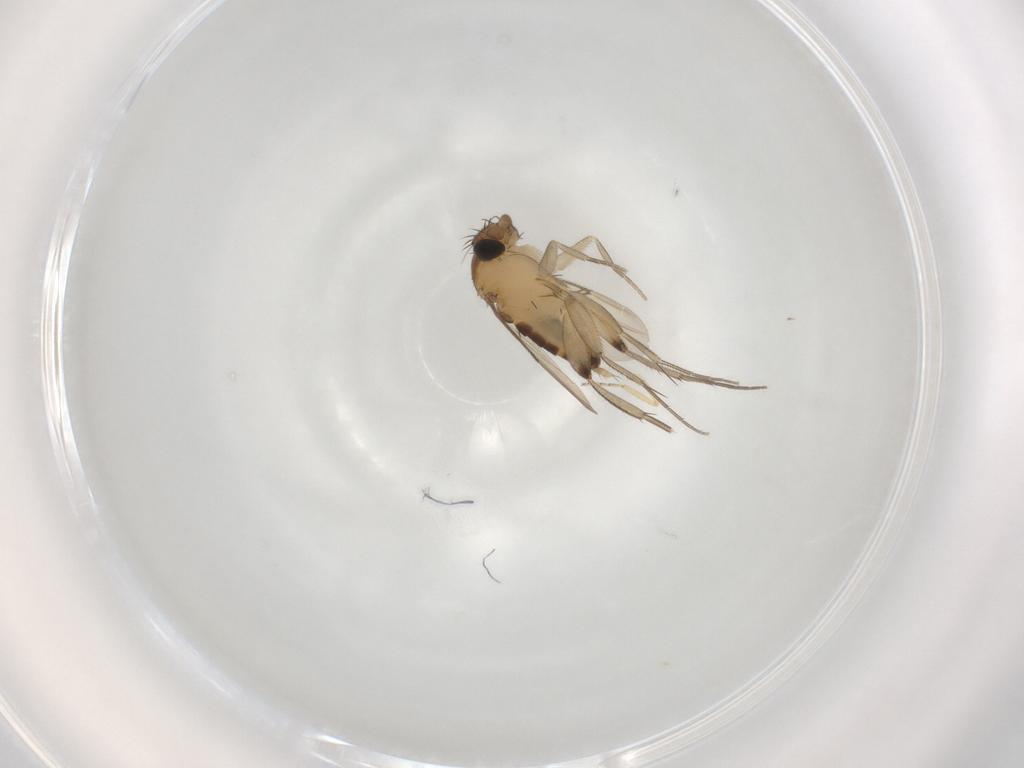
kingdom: Animalia
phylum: Arthropoda
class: Insecta
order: Diptera
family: Phoridae
